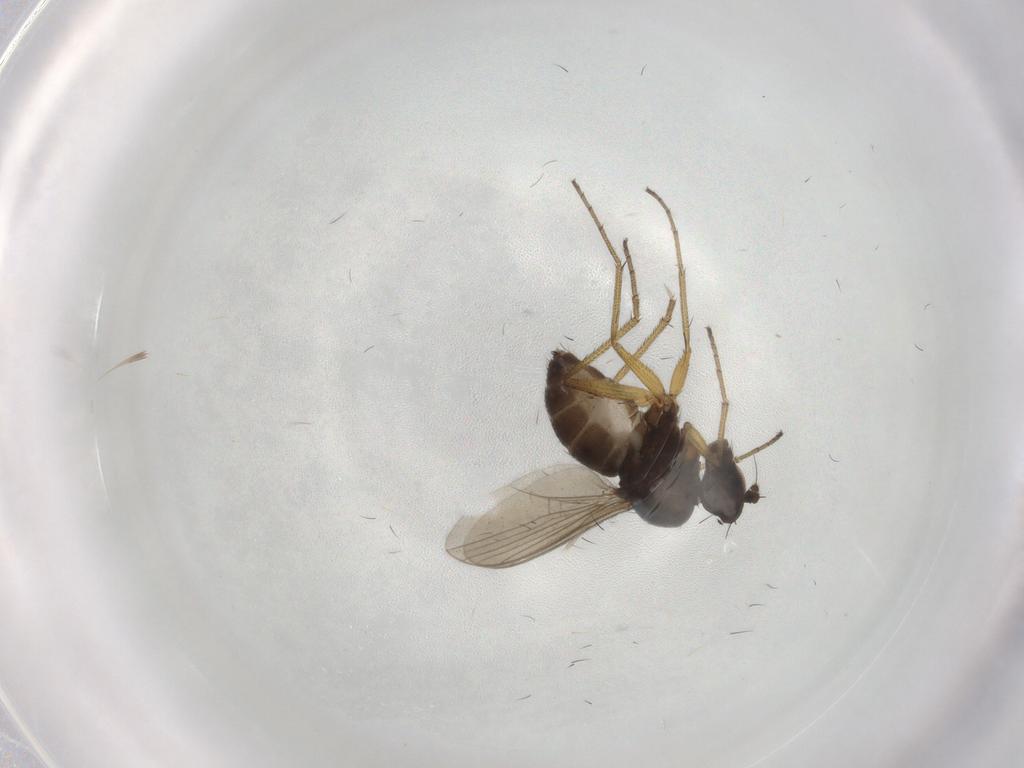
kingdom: Animalia
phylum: Arthropoda
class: Insecta
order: Diptera
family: Dolichopodidae
